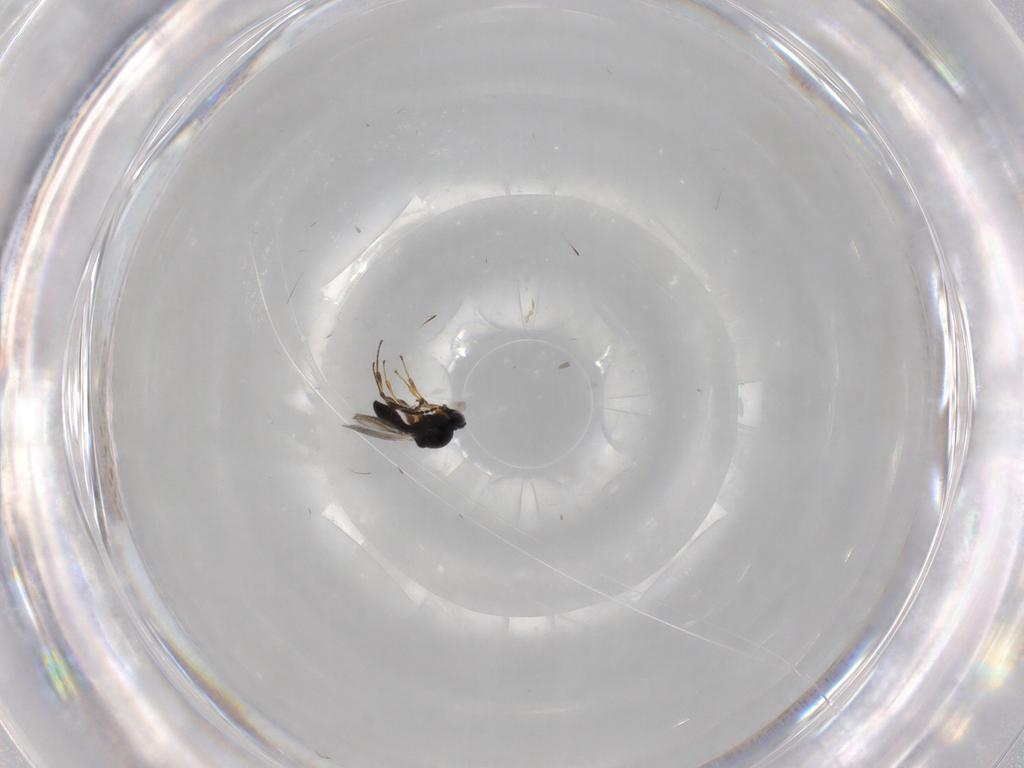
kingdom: Animalia
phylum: Arthropoda
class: Insecta
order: Hymenoptera
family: Platygastridae
